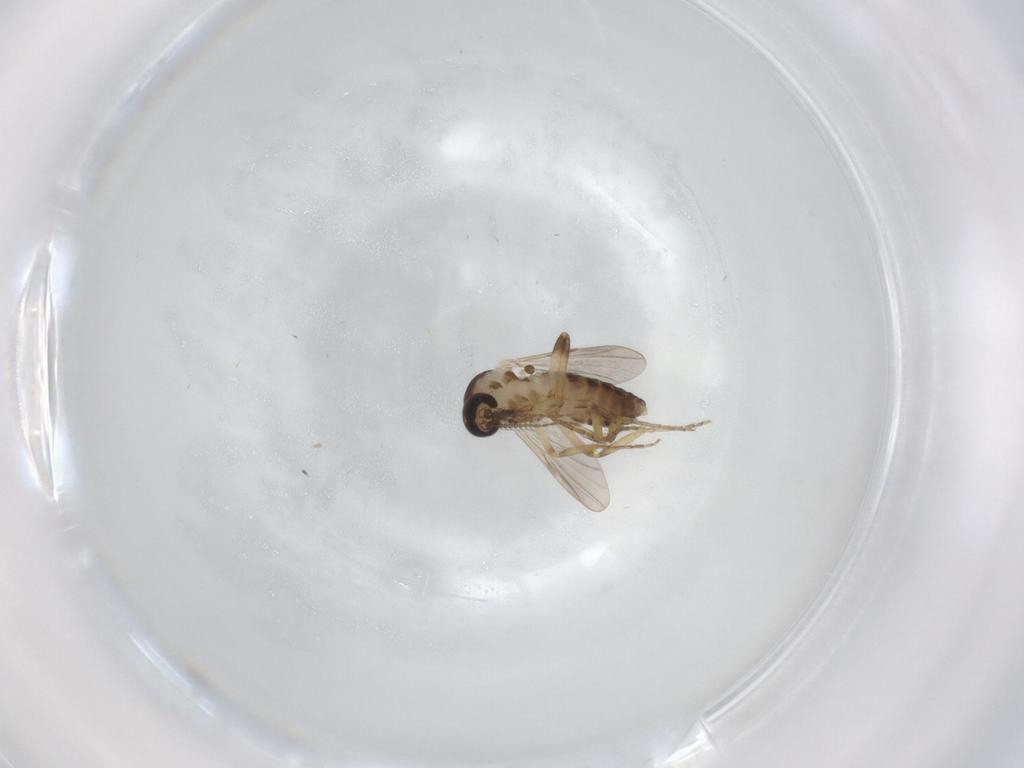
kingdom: Animalia
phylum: Arthropoda
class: Insecta
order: Diptera
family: Ceratopogonidae
